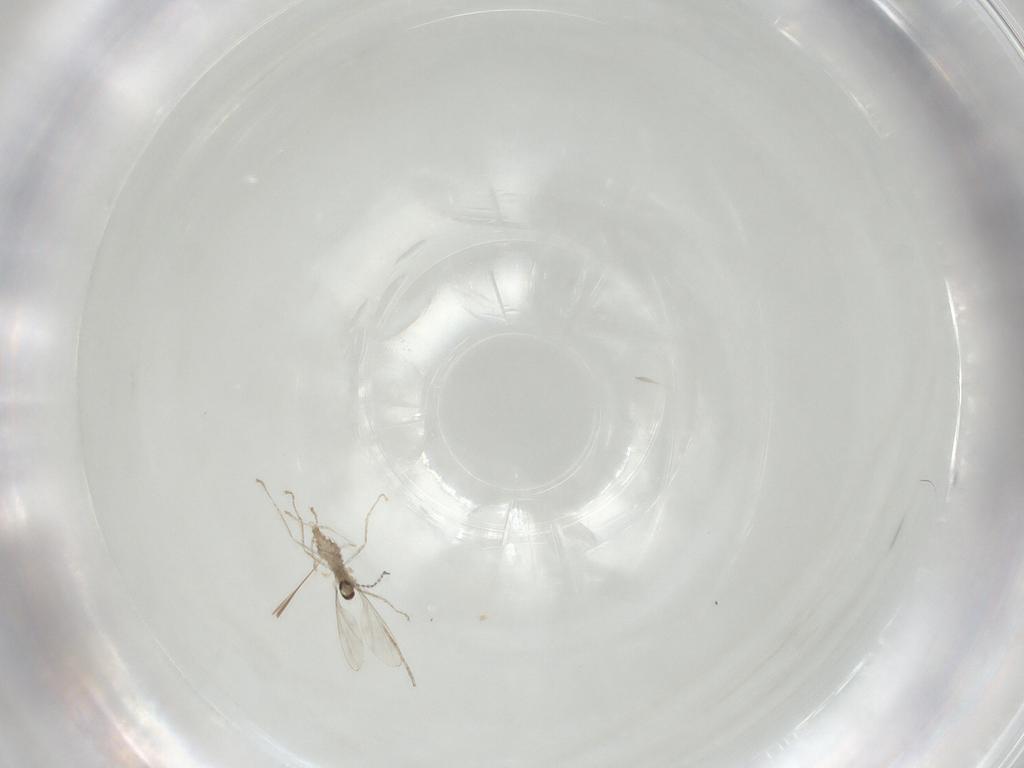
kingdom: Animalia
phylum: Arthropoda
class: Insecta
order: Diptera
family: Cecidomyiidae
